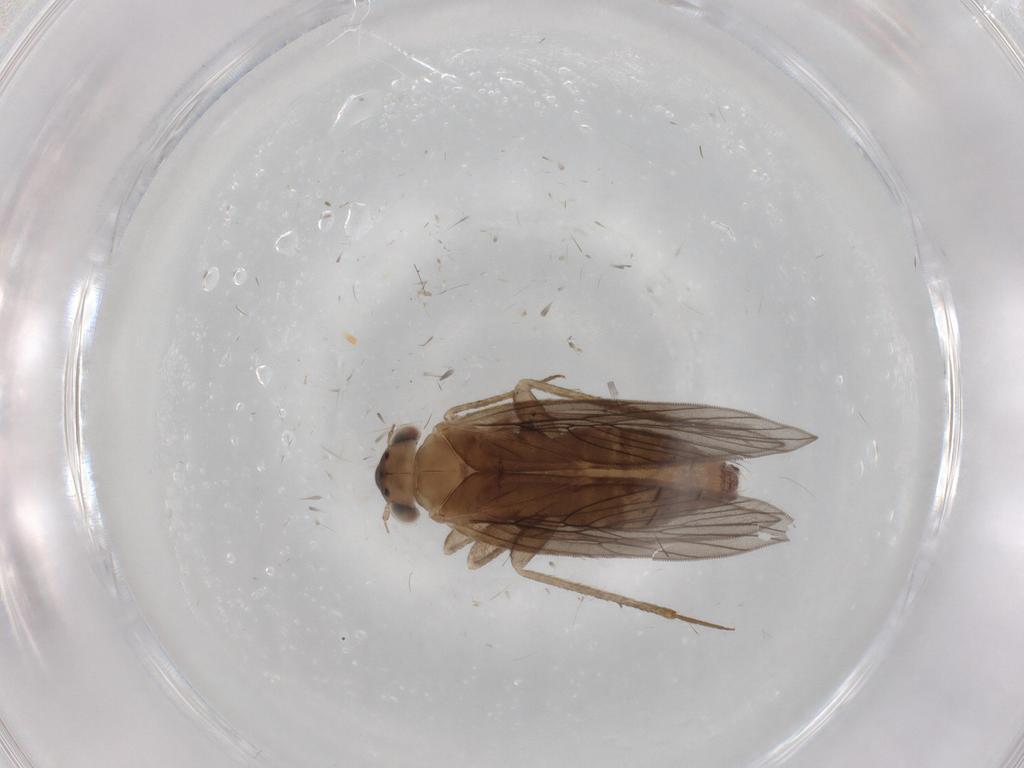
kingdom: Animalia
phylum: Arthropoda
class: Insecta
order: Psocodea
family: Lepidopsocidae
